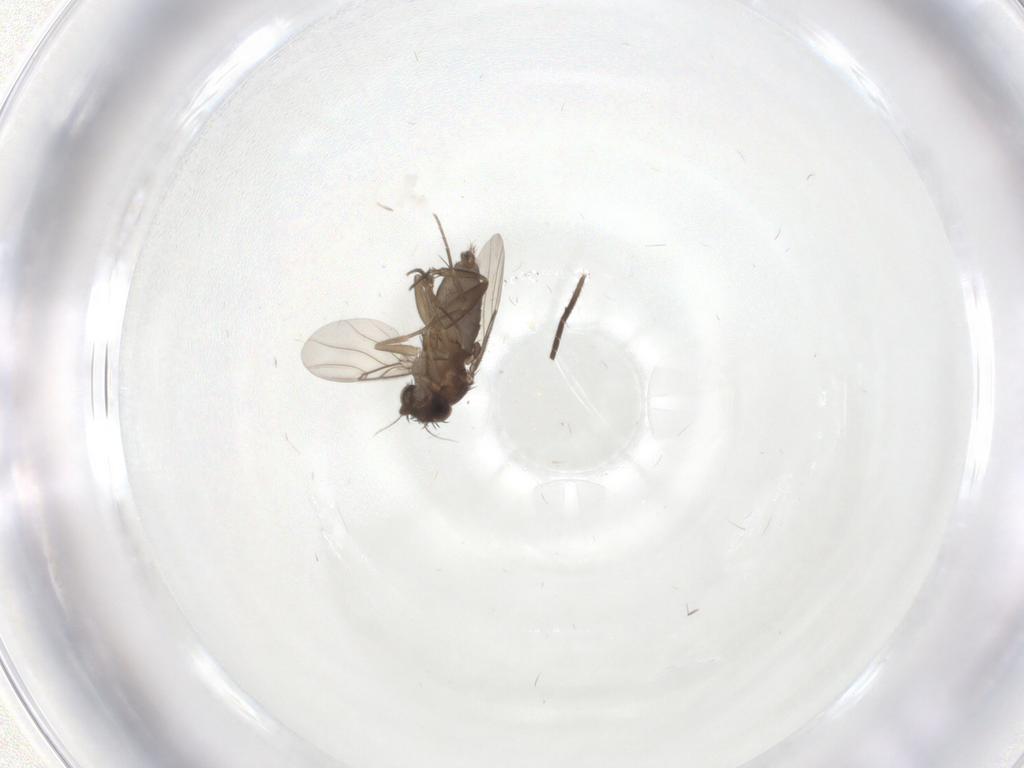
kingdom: Animalia
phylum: Arthropoda
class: Insecta
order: Diptera
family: Phoridae
